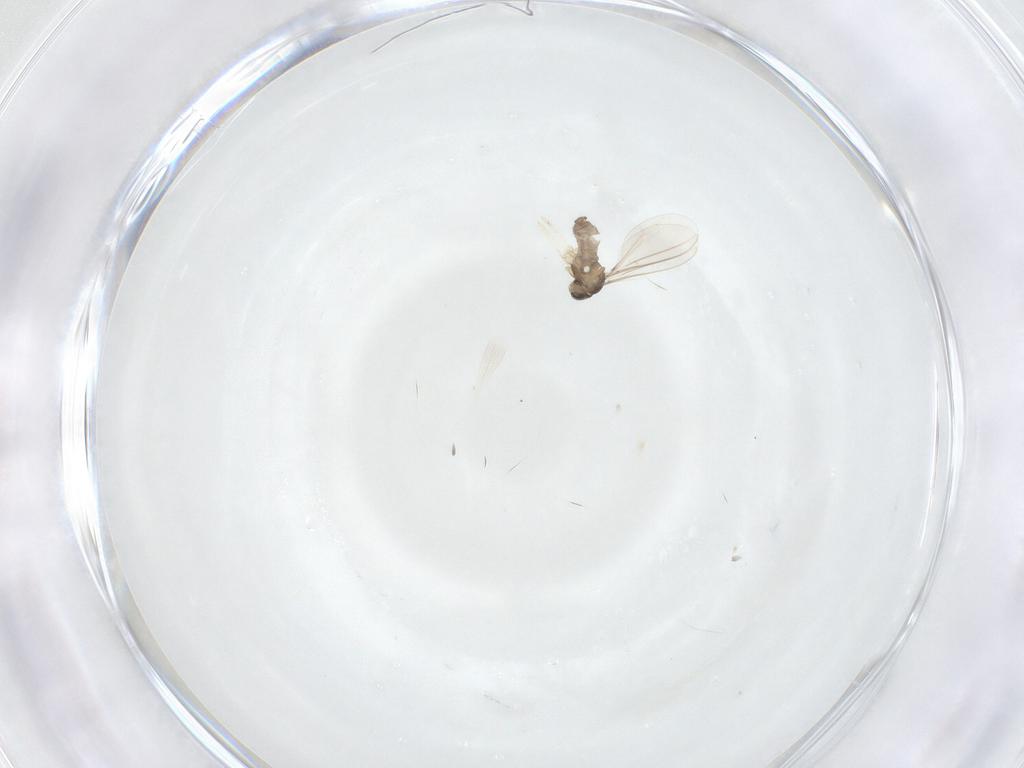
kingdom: Animalia
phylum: Arthropoda
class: Insecta
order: Diptera
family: Cecidomyiidae
